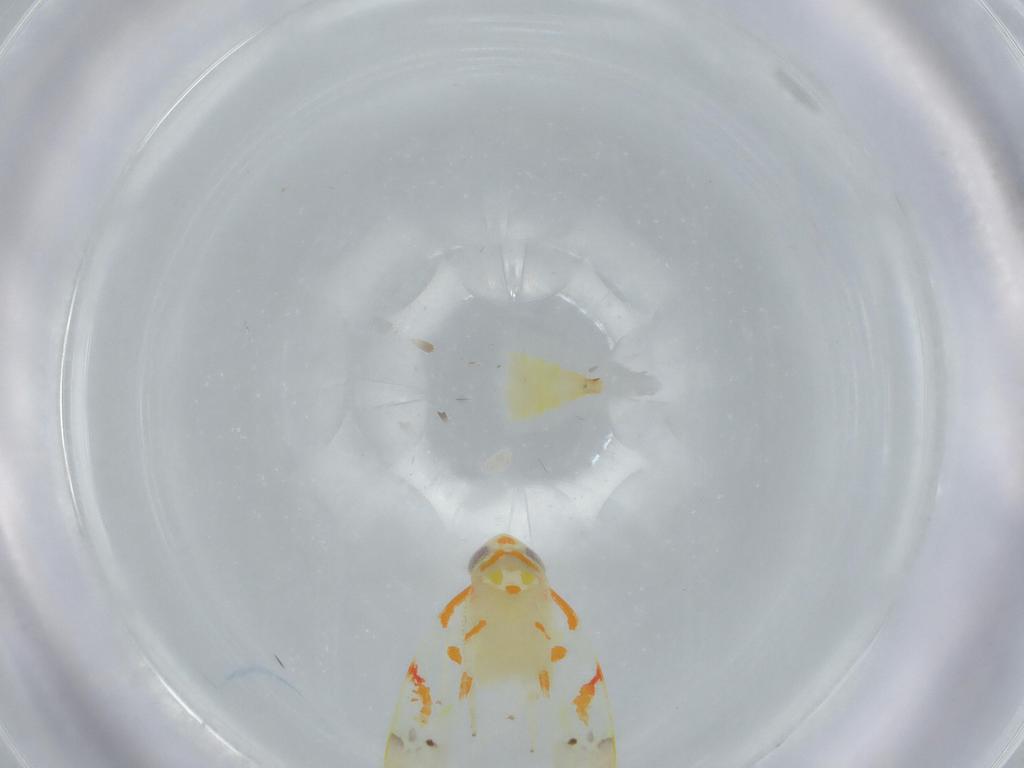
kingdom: Animalia
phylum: Arthropoda
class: Insecta
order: Hemiptera
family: Cicadellidae
